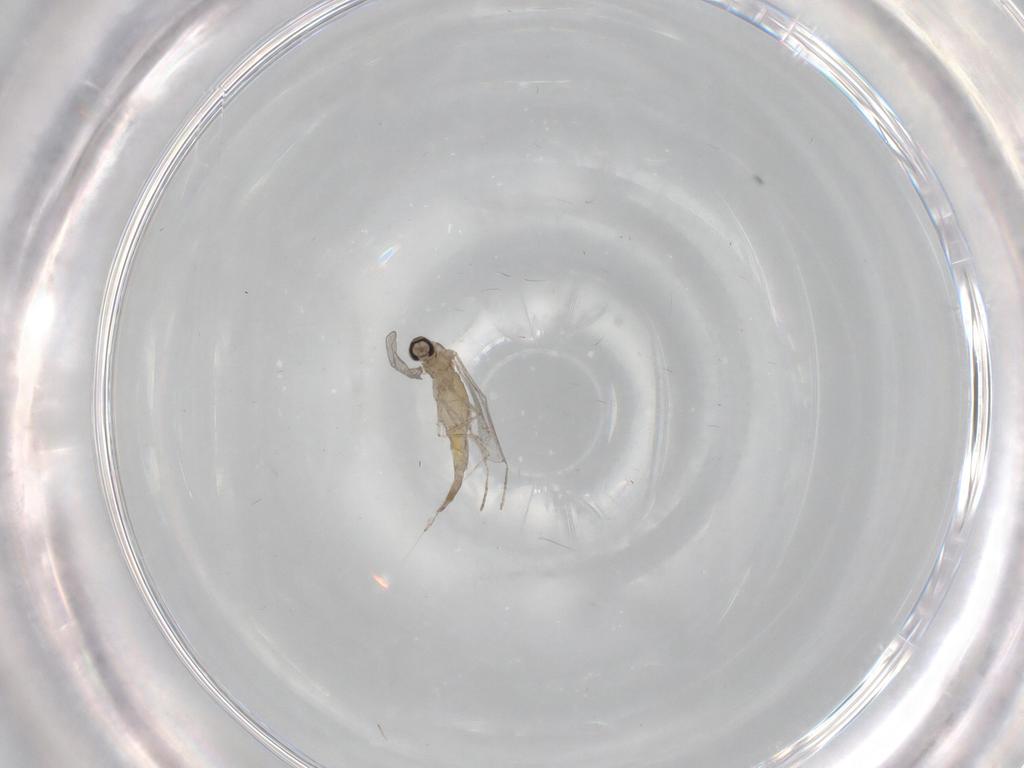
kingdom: Animalia
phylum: Arthropoda
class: Insecta
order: Diptera
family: Cecidomyiidae
